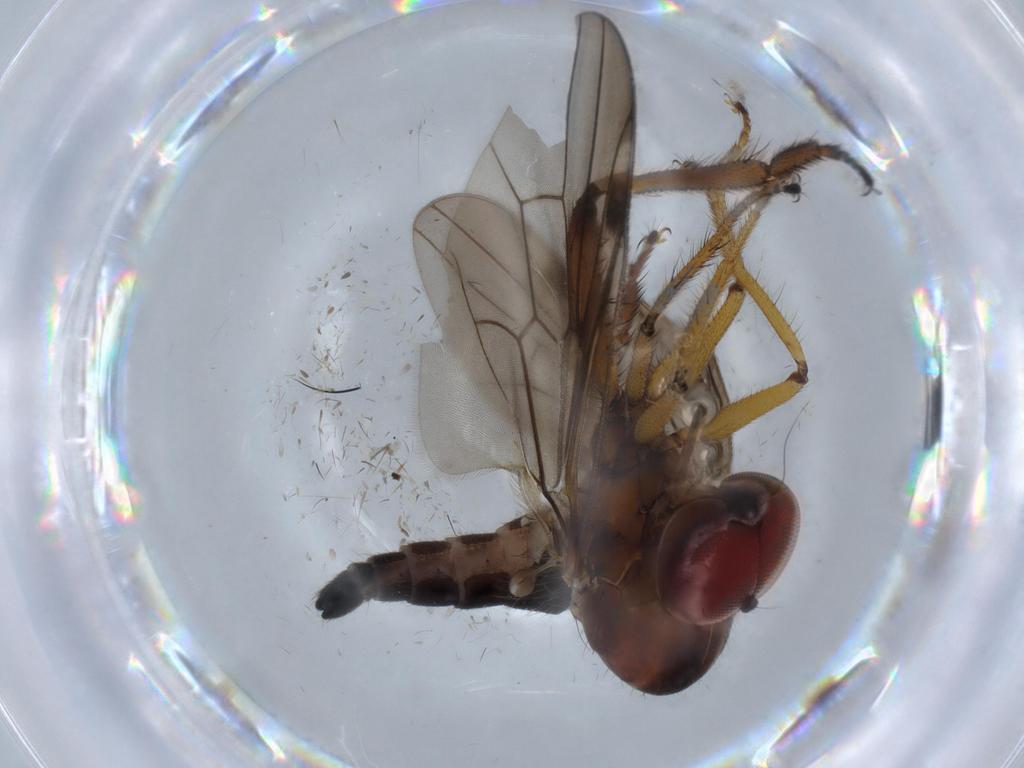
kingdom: Animalia
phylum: Arthropoda
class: Insecta
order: Diptera
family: Hybotidae
